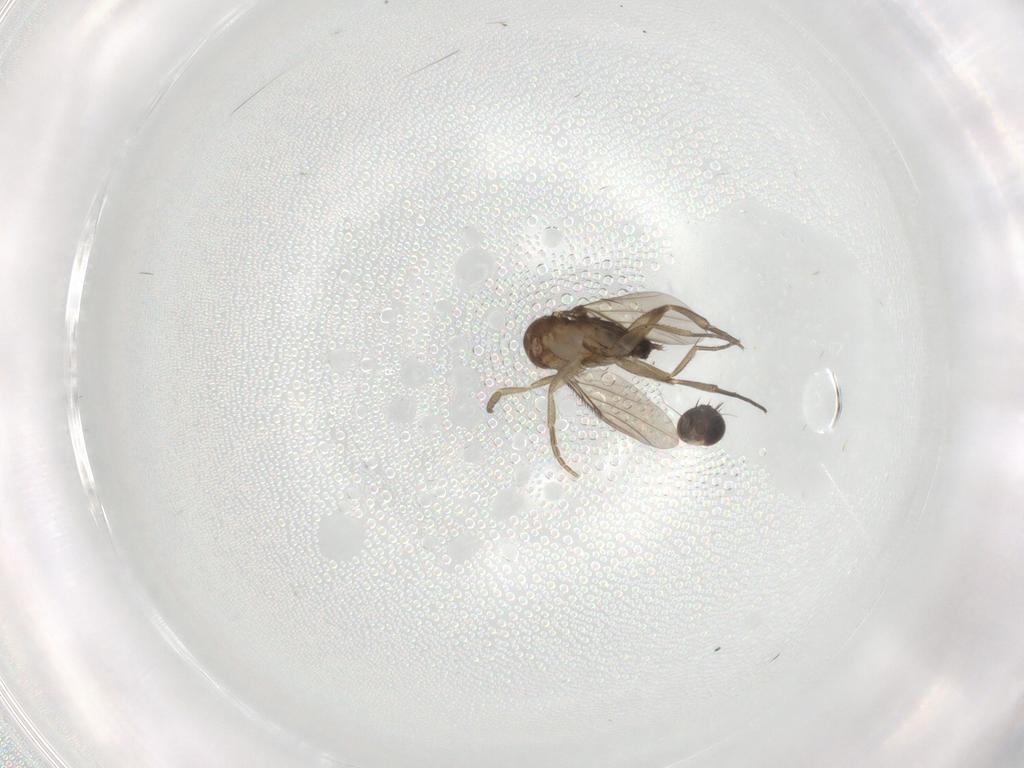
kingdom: Animalia
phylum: Arthropoda
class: Insecta
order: Diptera
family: Phoridae
